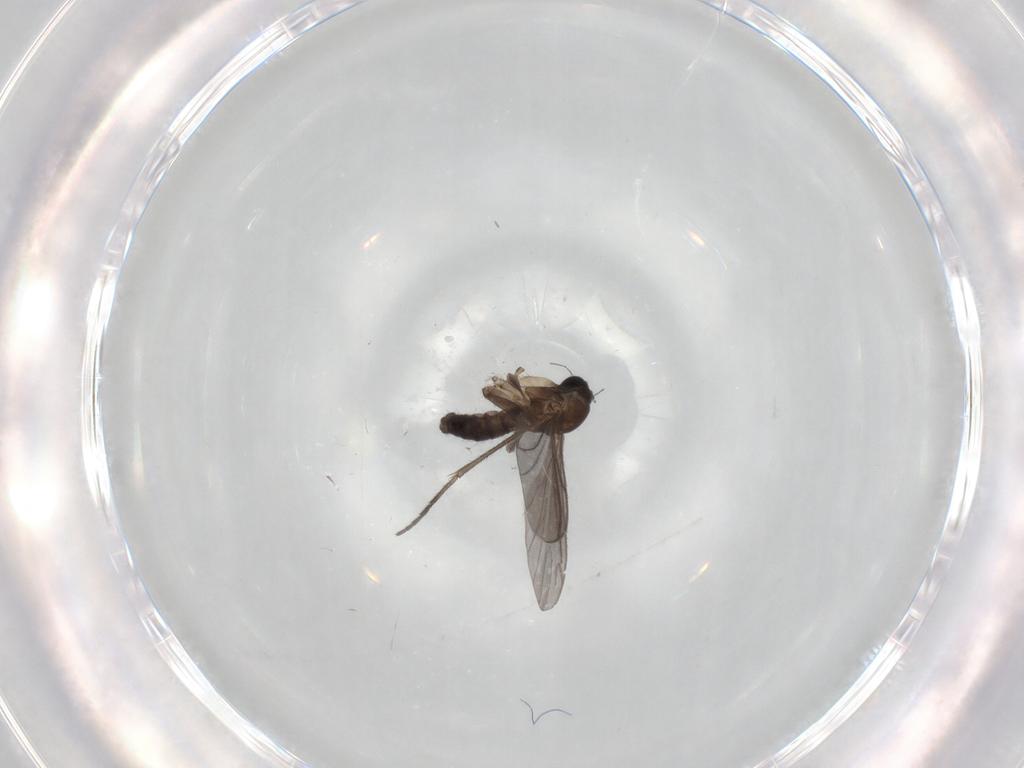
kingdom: Animalia
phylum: Arthropoda
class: Insecta
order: Diptera
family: Sciaridae
